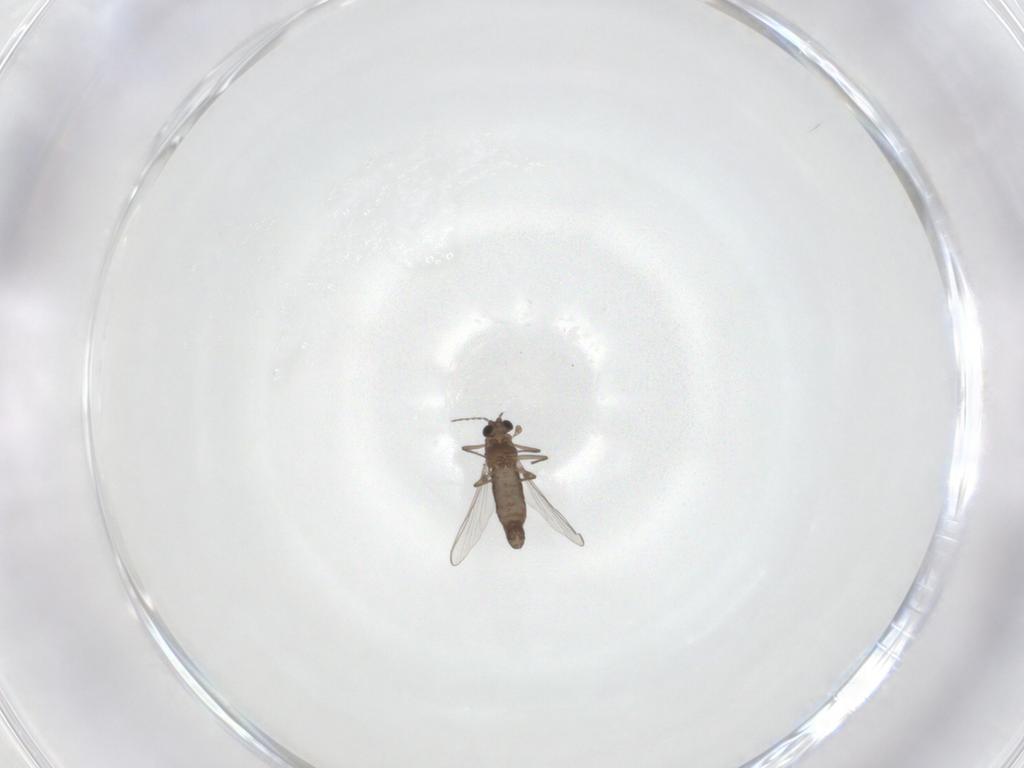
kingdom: Animalia
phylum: Arthropoda
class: Insecta
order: Diptera
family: Chironomidae
